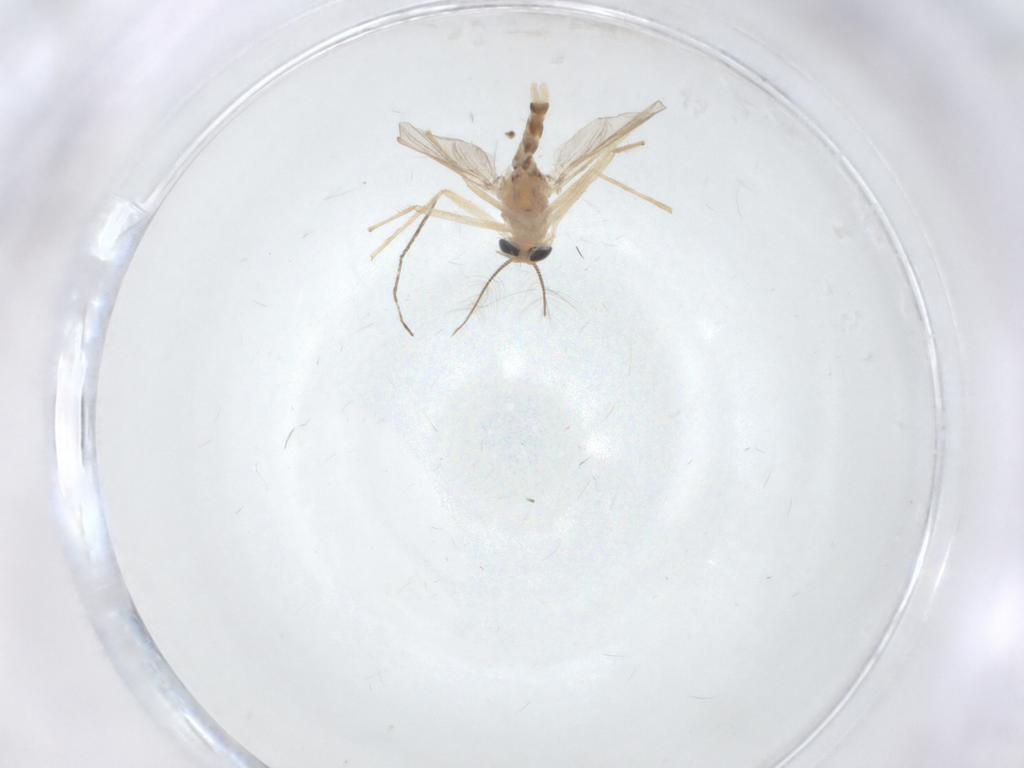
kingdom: Animalia
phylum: Arthropoda
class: Insecta
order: Diptera
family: Chironomidae
